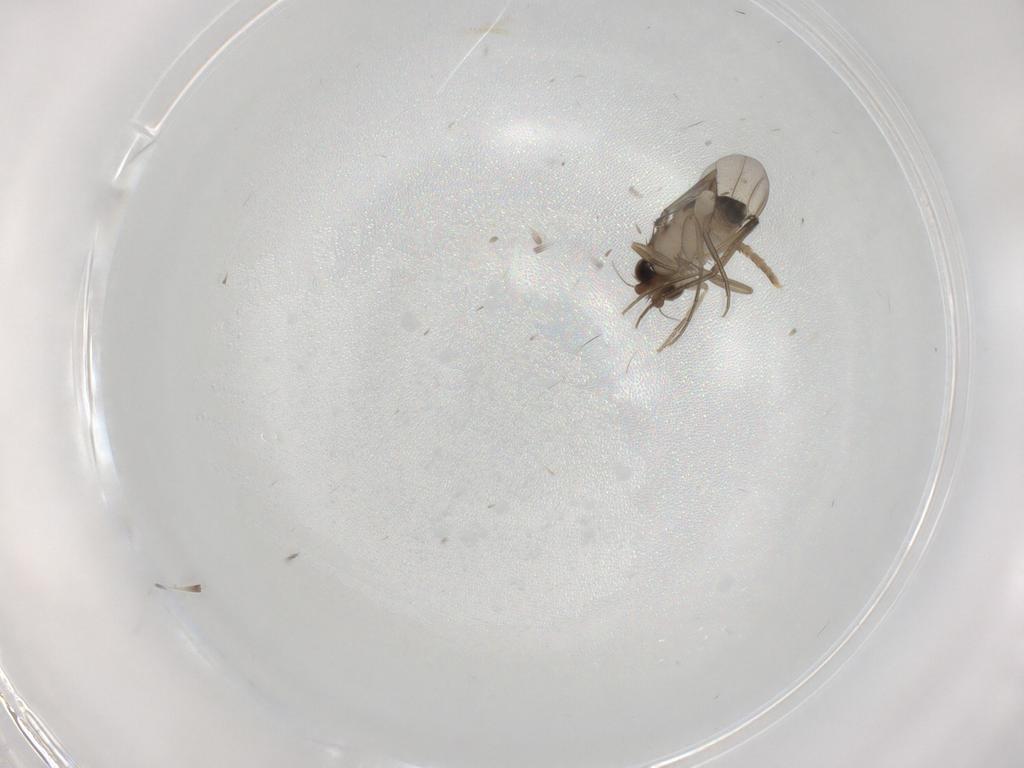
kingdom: Animalia
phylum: Arthropoda
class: Insecta
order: Diptera
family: Phoridae
